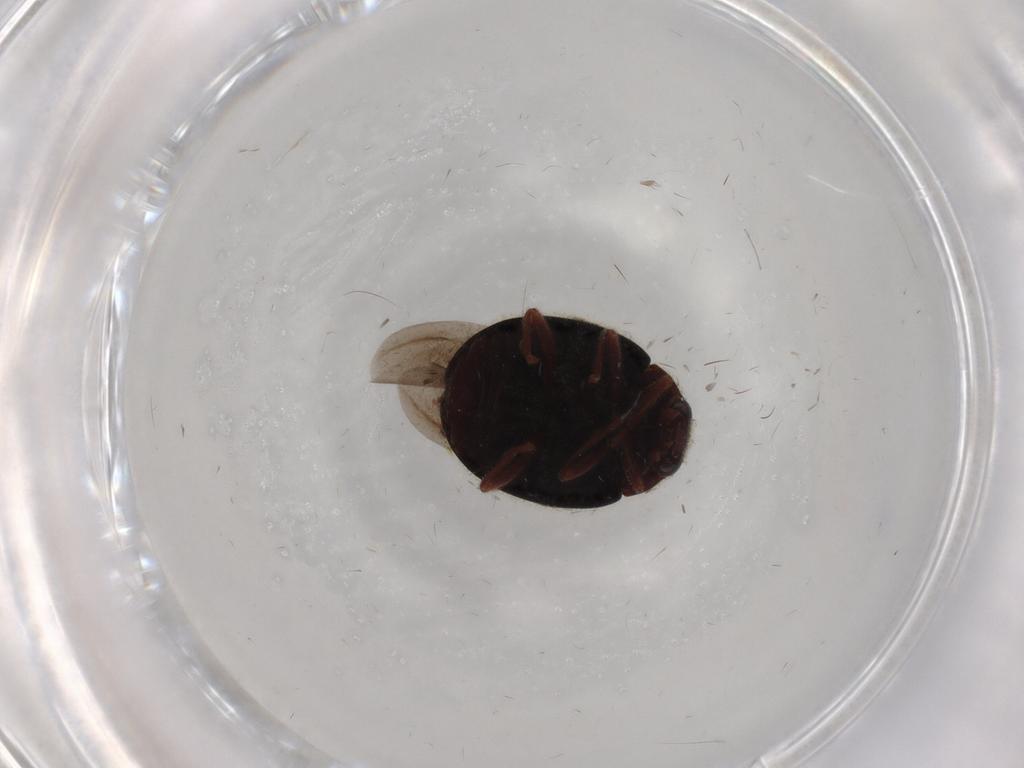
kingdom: Animalia
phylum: Arthropoda
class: Insecta
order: Coleoptera
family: Coccinellidae
